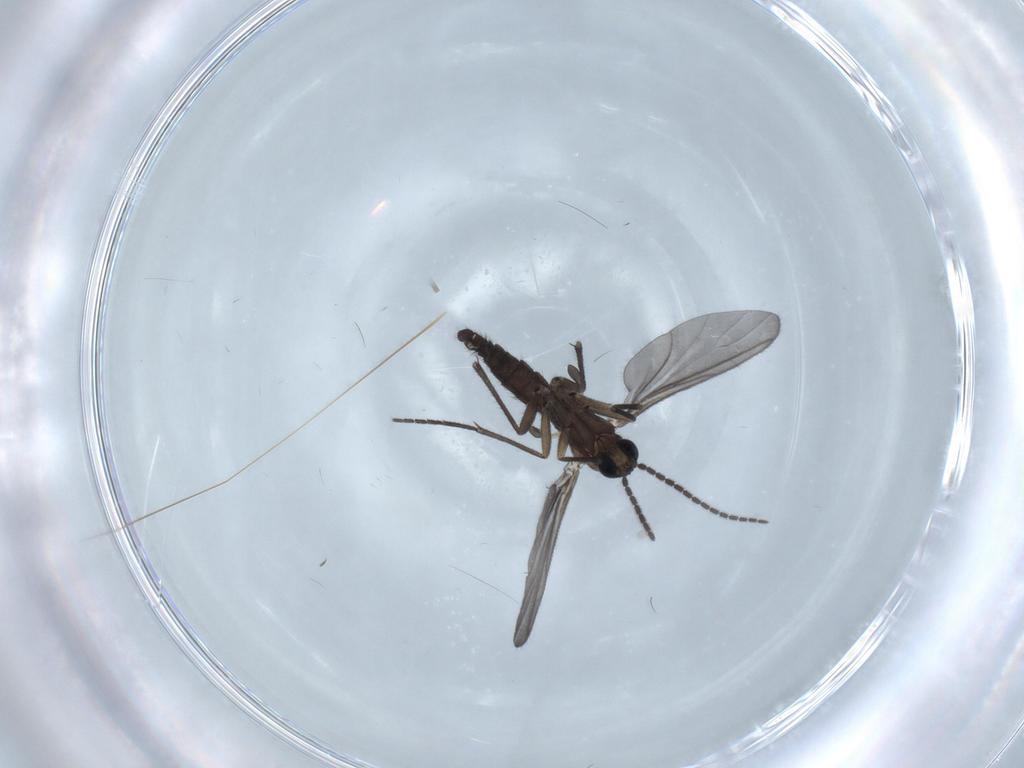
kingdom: Animalia
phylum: Arthropoda
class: Insecta
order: Diptera
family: Sciaridae
